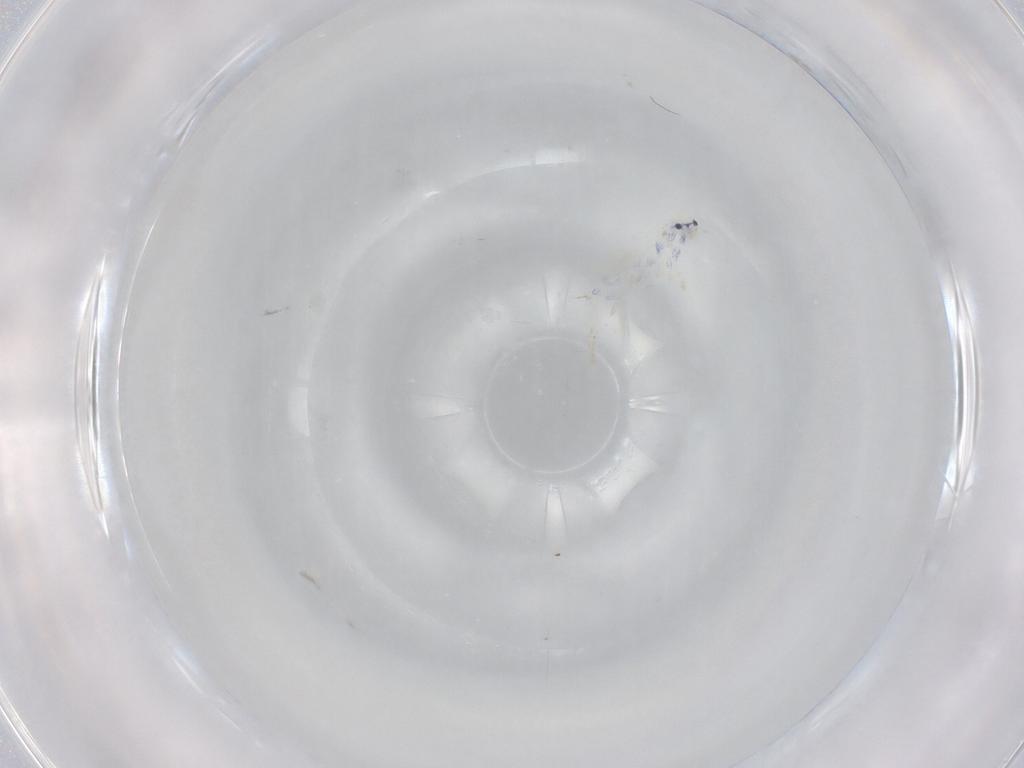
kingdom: Animalia
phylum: Arthropoda
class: Collembola
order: Entomobryomorpha
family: Entomobryidae
